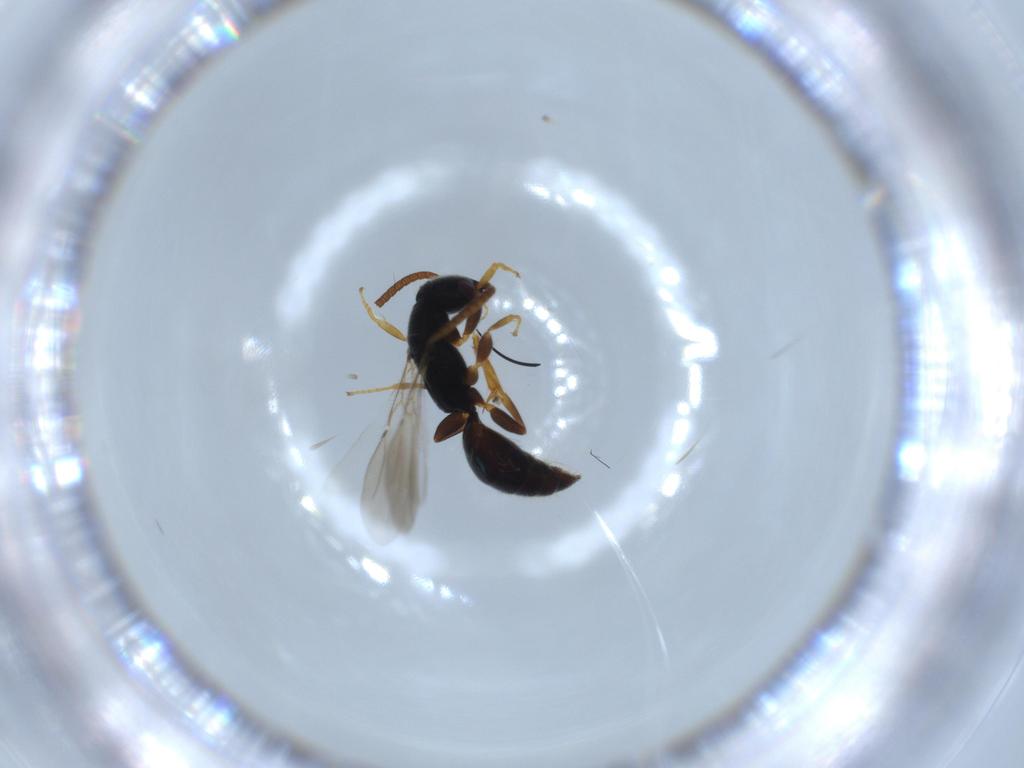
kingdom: Animalia
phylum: Arthropoda
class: Insecta
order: Hymenoptera
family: Bethylidae
